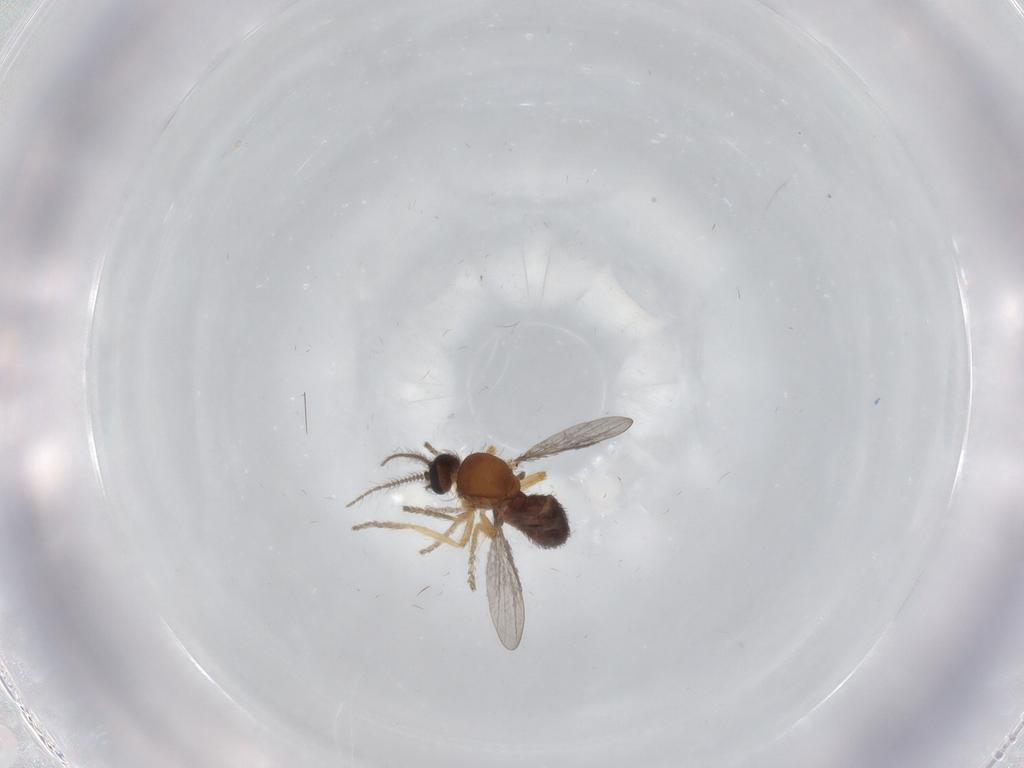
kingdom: Animalia
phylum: Arthropoda
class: Insecta
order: Diptera
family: Ceratopogonidae
